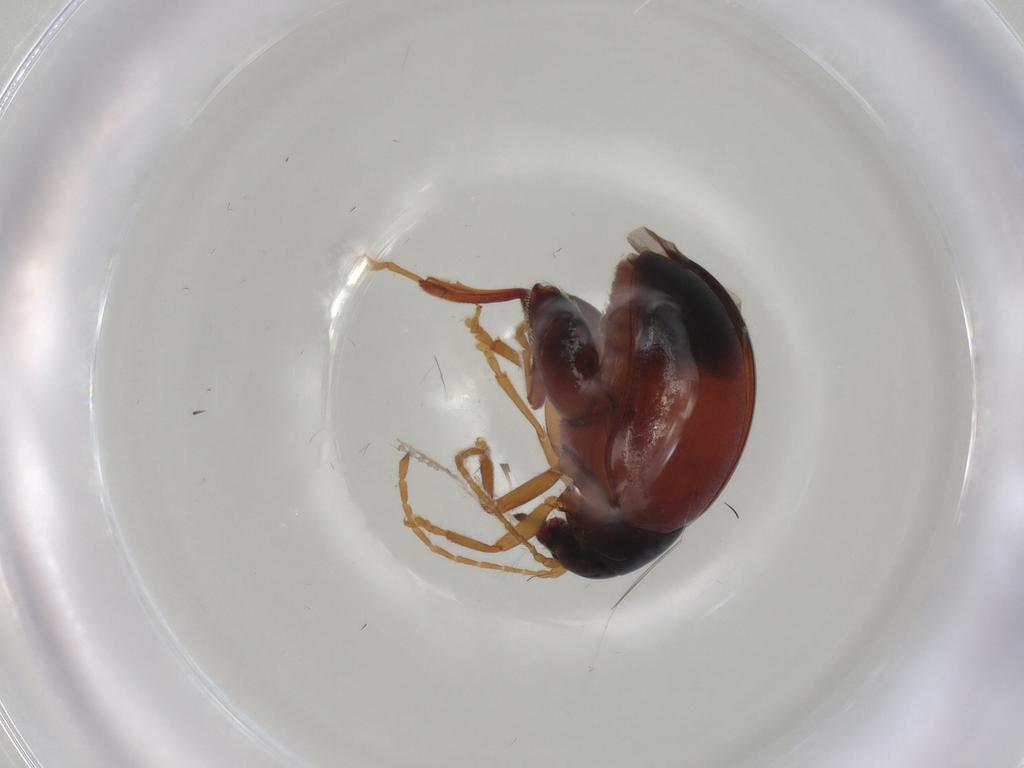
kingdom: Animalia
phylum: Arthropoda
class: Insecta
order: Coleoptera
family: Chrysomelidae
